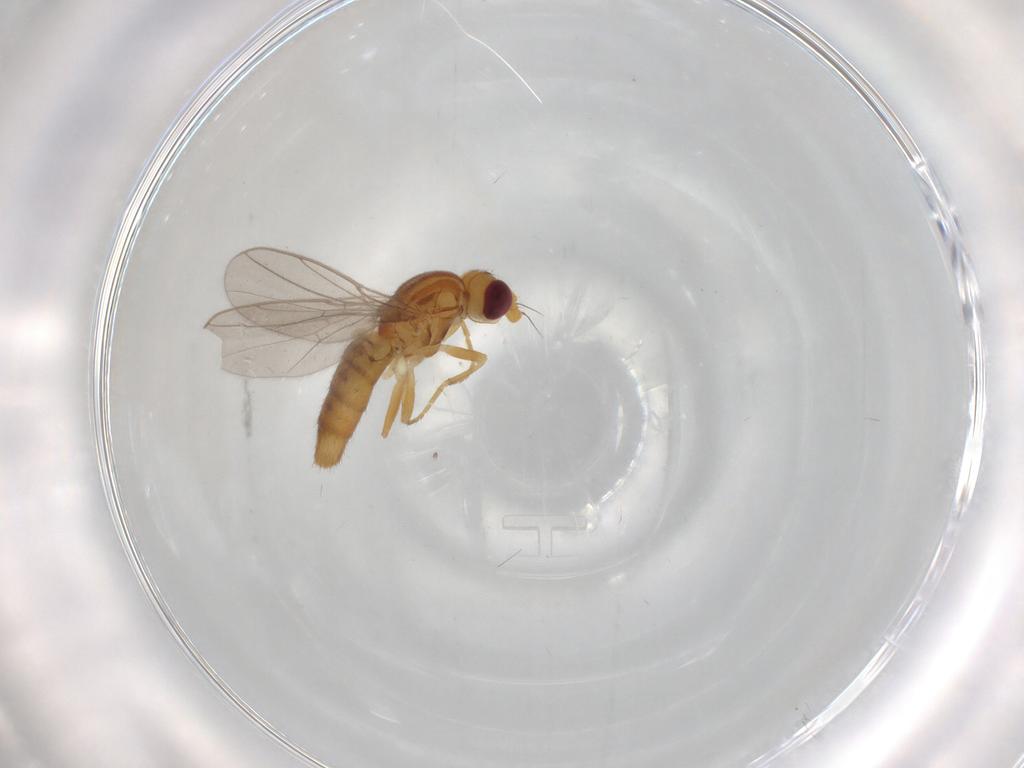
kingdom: Animalia
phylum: Arthropoda
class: Insecta
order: Diptera
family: Chloropidae
